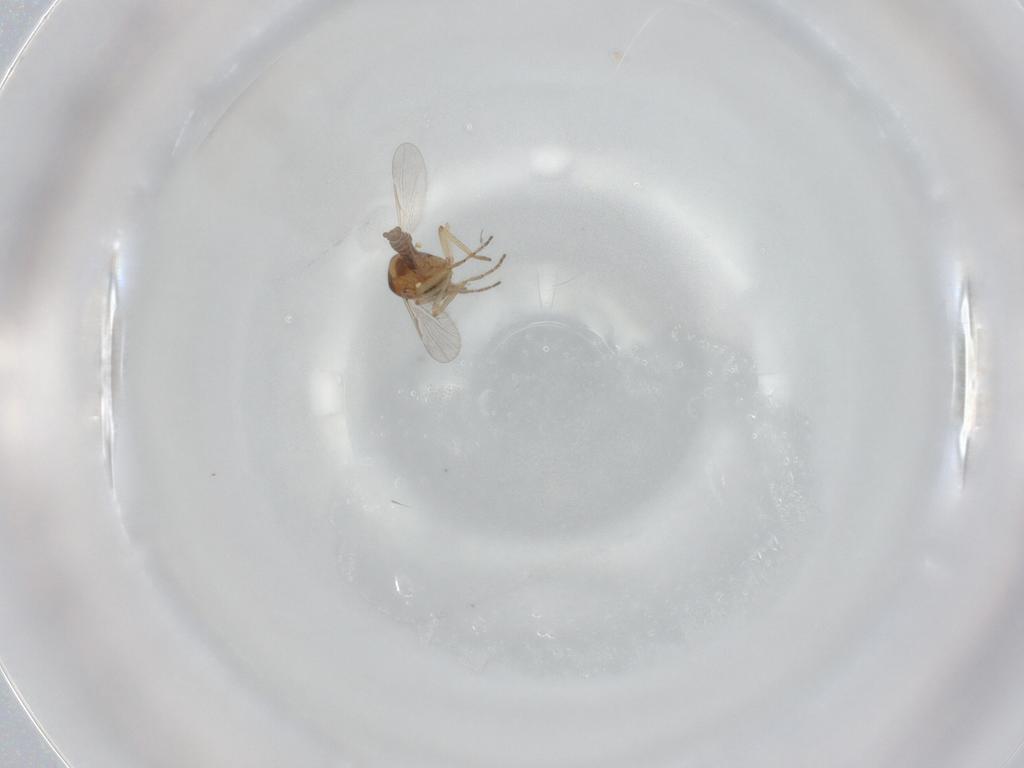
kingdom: Animalia
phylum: Arthropoda
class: Insecta
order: Diptera
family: Ceratopogonidae
